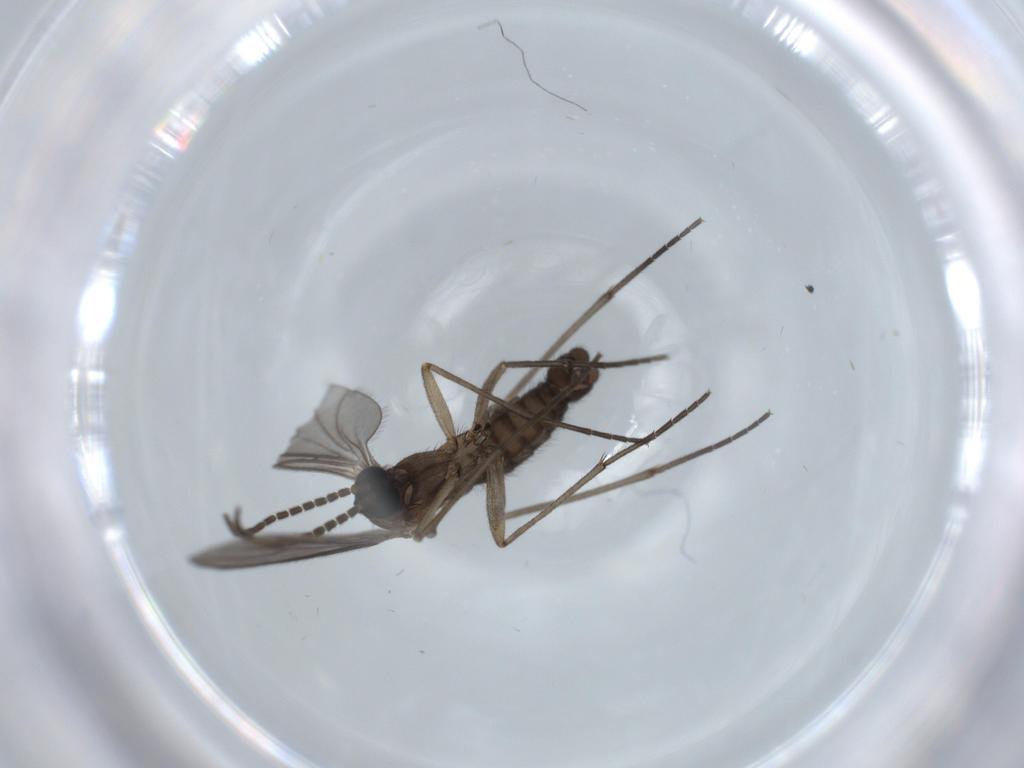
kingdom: Animalia
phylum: Arthropoda
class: Insecta
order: Diptera
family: Sciaridae
